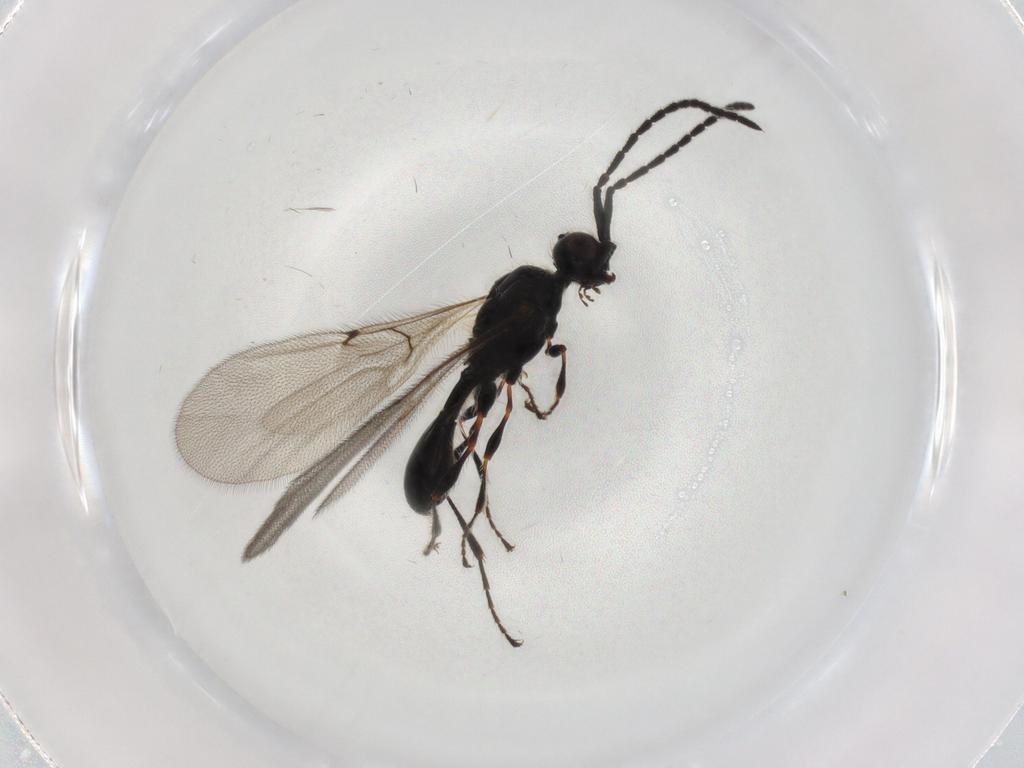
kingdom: Animalia
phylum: Arthropoda
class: Insecta
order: Hymenoptera
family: Diapriidae
